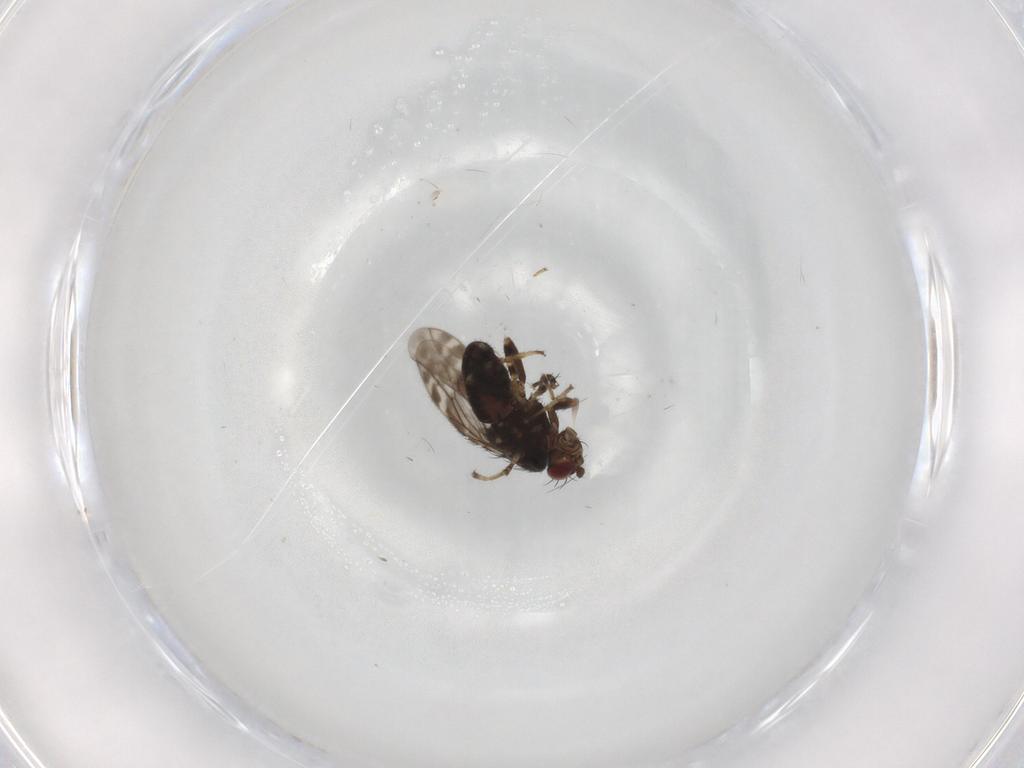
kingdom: Animalia
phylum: Arthropoda
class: Insecta
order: Diptera
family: Sphaeroceridae
